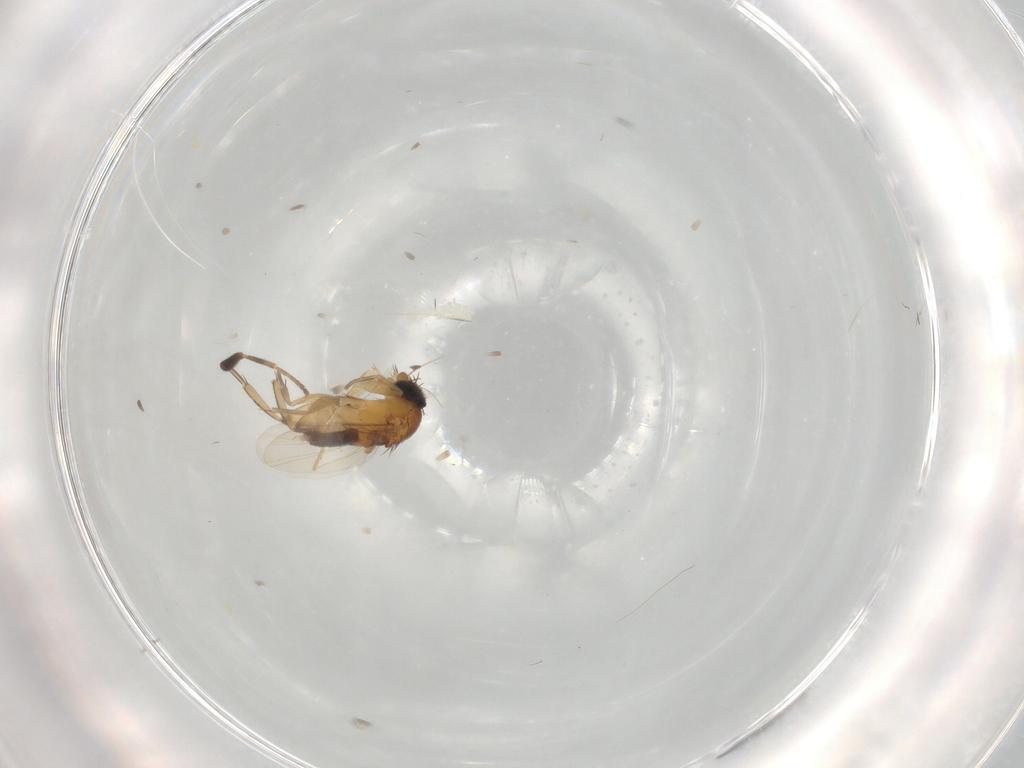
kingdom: Animalia
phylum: Arthropoda
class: Insecta
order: Diptera
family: Chloropidae
